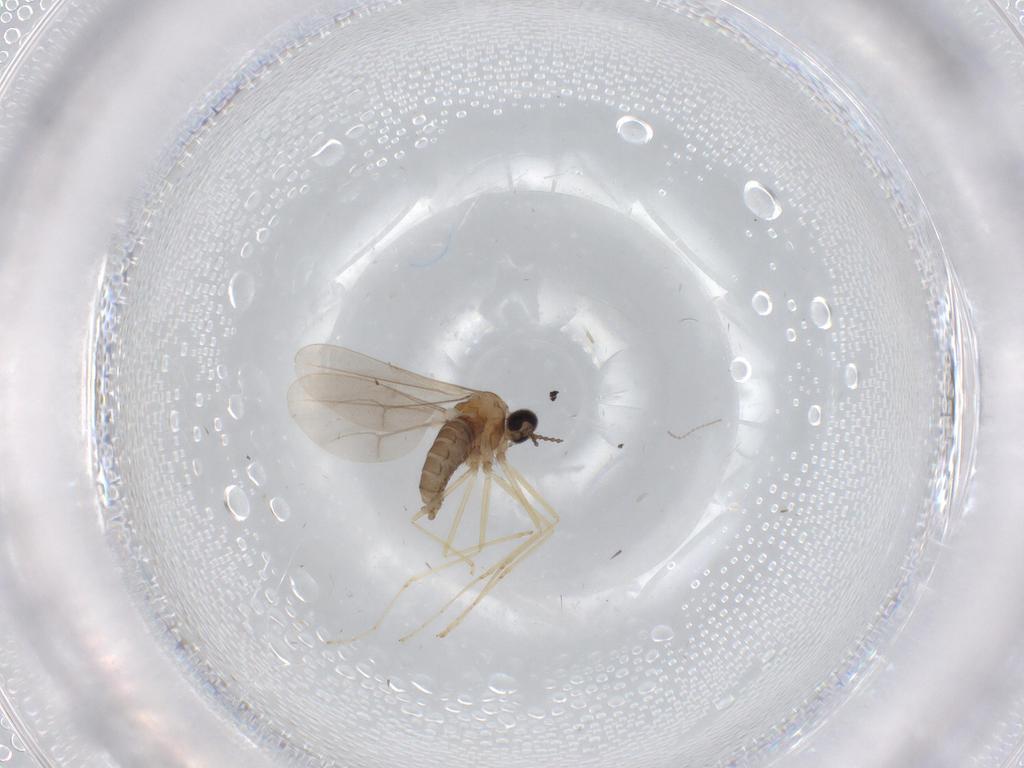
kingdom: Animalia
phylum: Arthropoda
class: Insecta
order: Diptera
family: Cecidomyiidae
